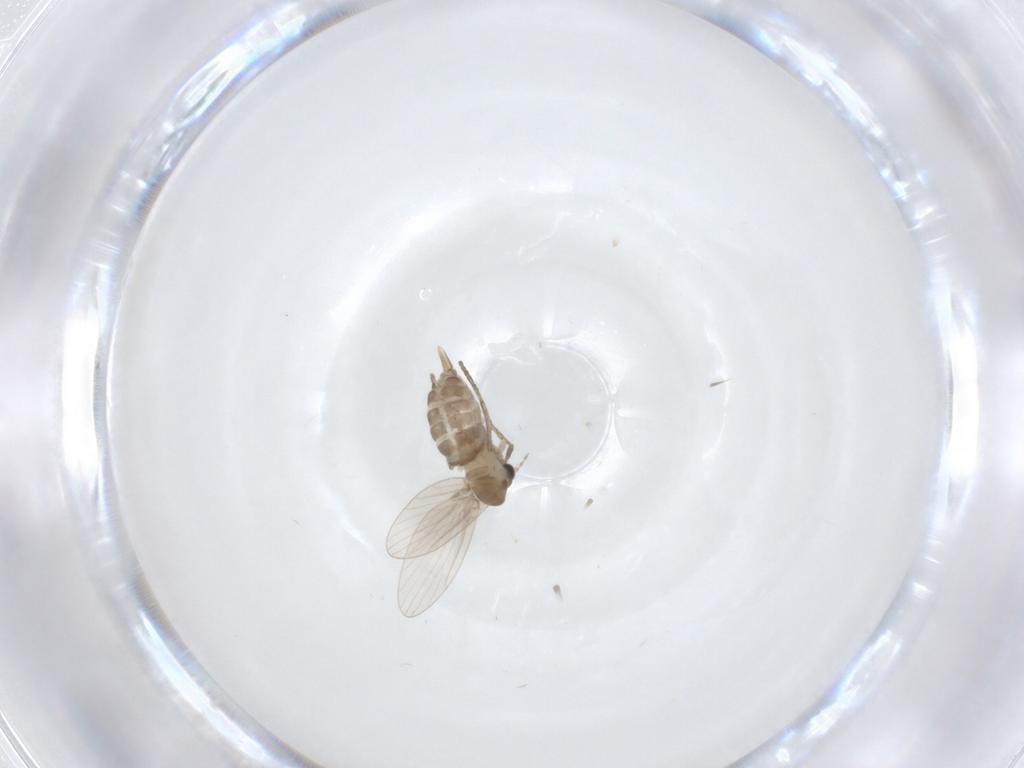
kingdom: Animalia
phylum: Arthropoda
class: Insecta
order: Diptera
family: Cecidomyiidae
